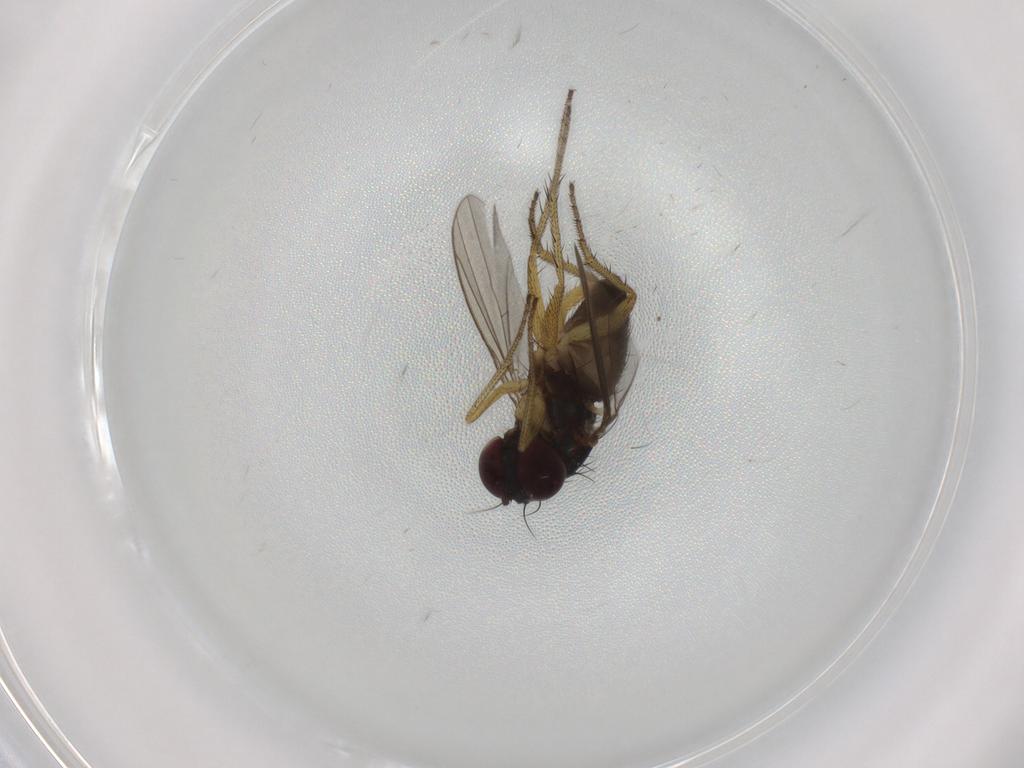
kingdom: Animalia
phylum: Arthropoda
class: Insecta
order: Diptera
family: Dolichopodidae
